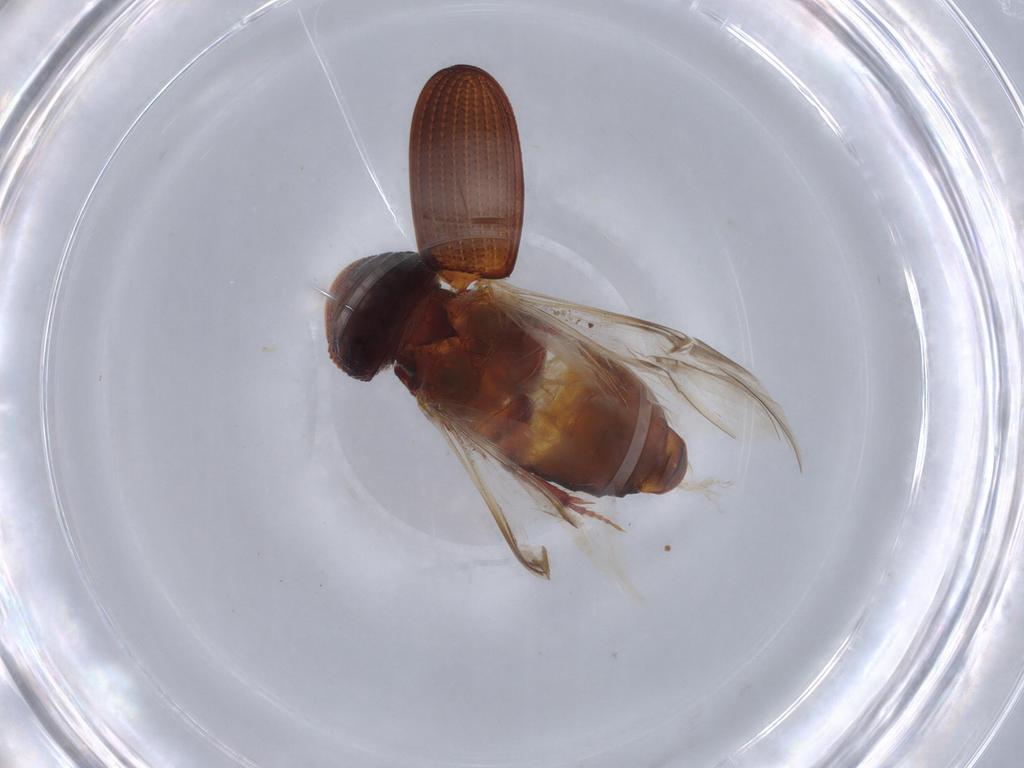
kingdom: Animalia
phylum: Arthropoda
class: Insecta
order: Coleoptera
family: Scarabaeidae
